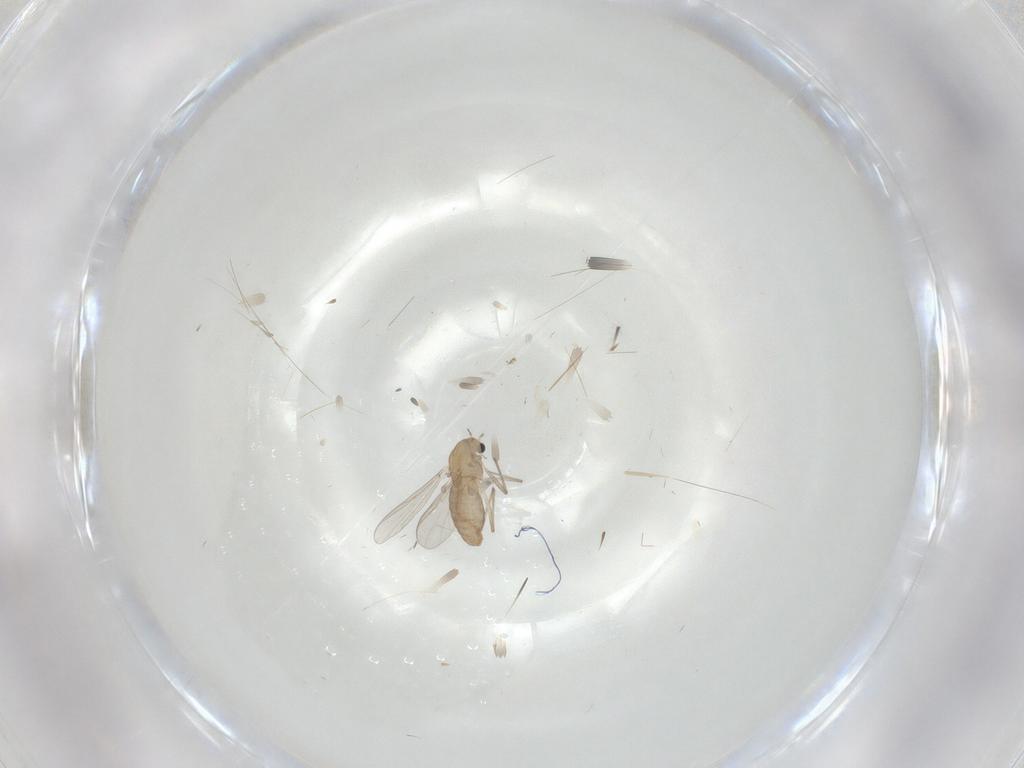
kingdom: Animalia
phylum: Arthropoda
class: Insecta
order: Diptera
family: Chironomidae
